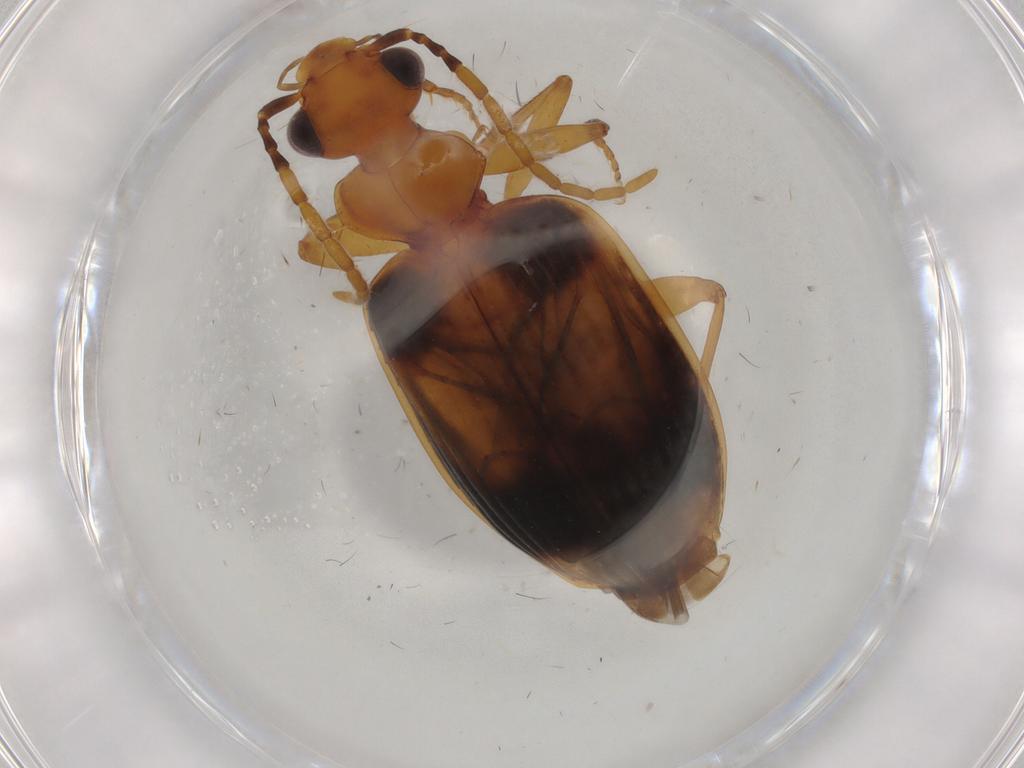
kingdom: Animalia
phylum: Arthropoda
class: Insecta
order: Coleoptera
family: Carabidae
